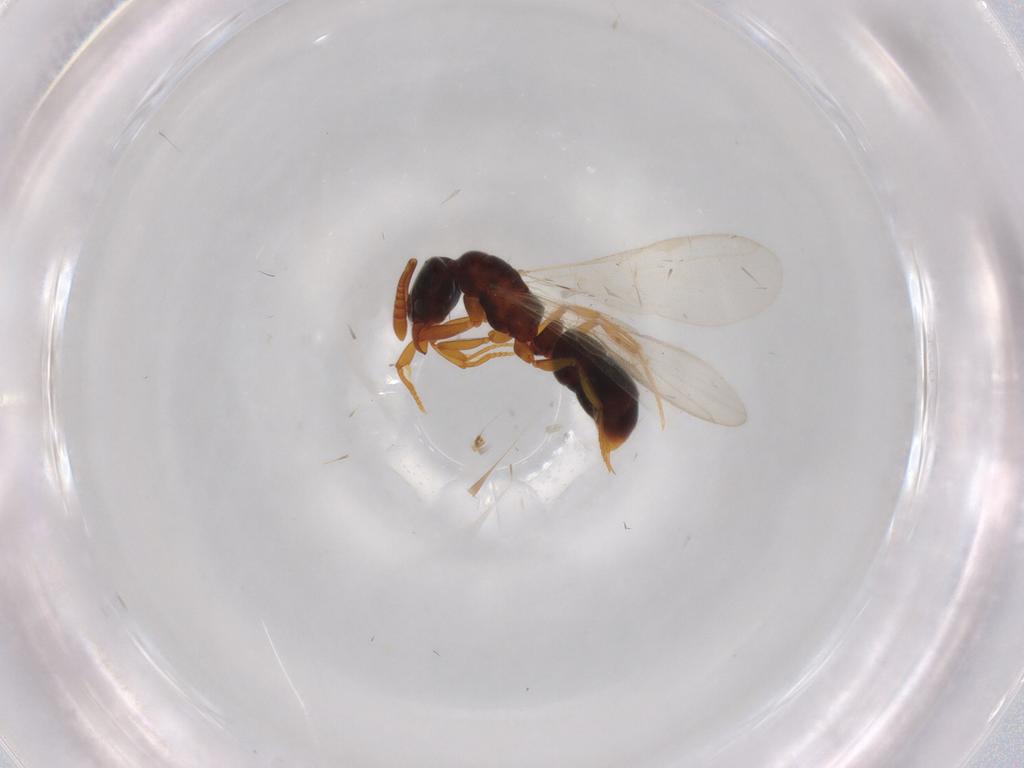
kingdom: Animalia
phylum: Arthropoda
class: Insecta
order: Hymenoptera
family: Formicidae
